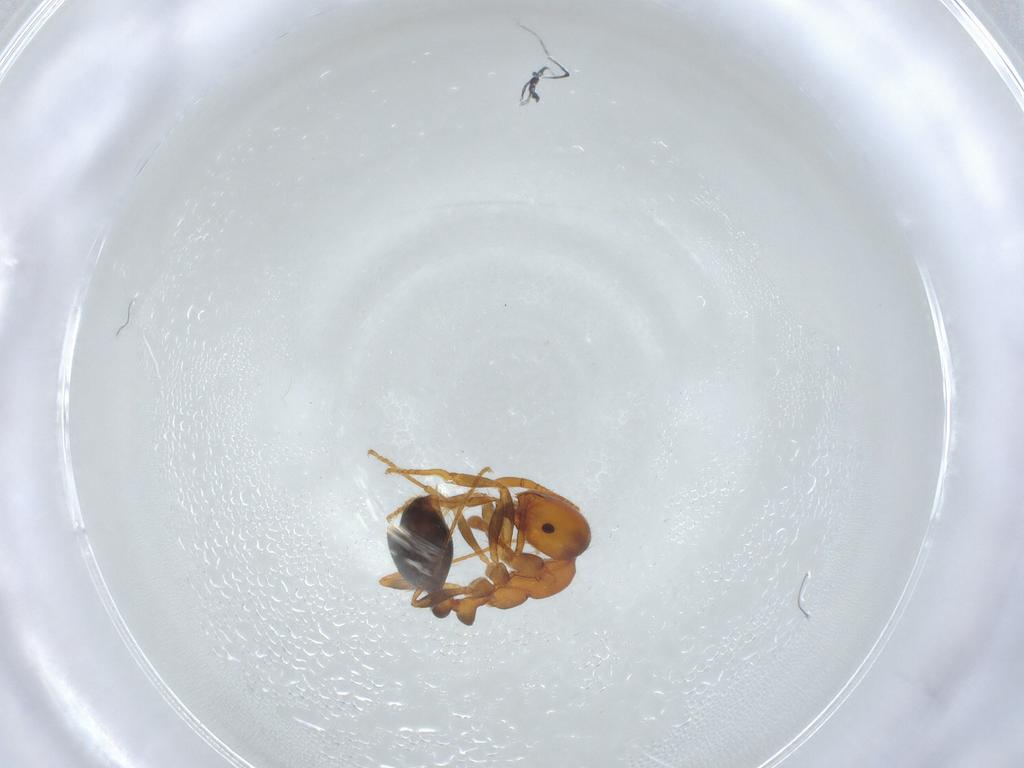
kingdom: Animalia
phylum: Arthropoda
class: Insecta
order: Hymenoptera
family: Formicidae
